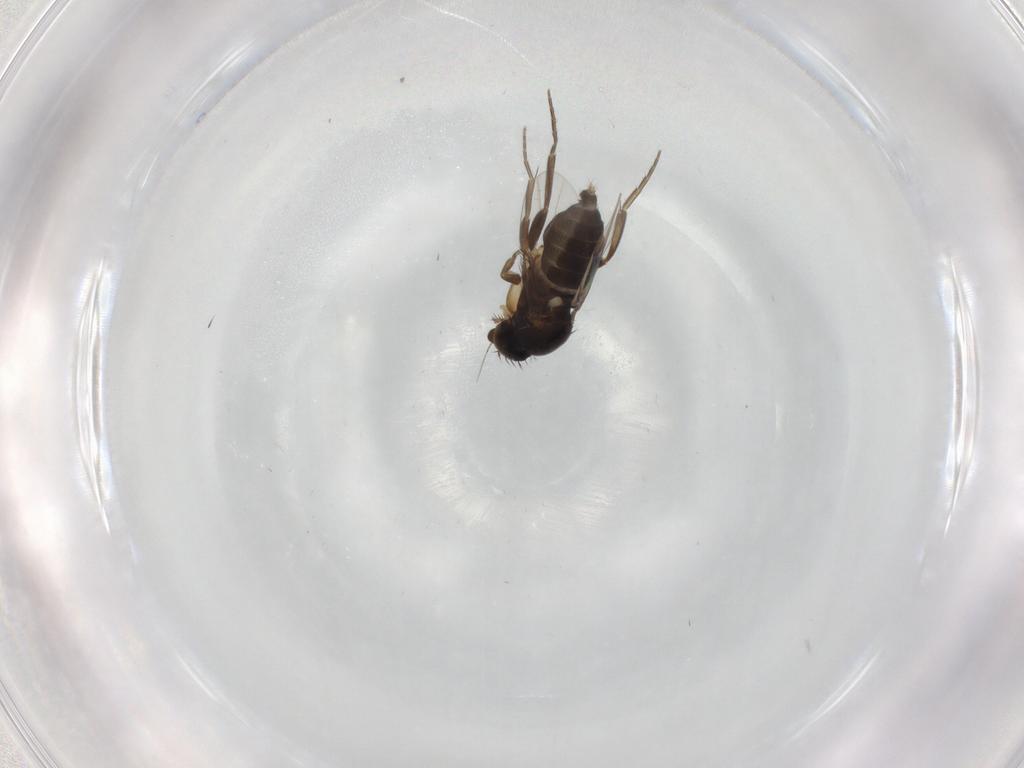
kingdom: Animalia
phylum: Arthropoda
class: Insecta
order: Diptera
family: Phoridae
